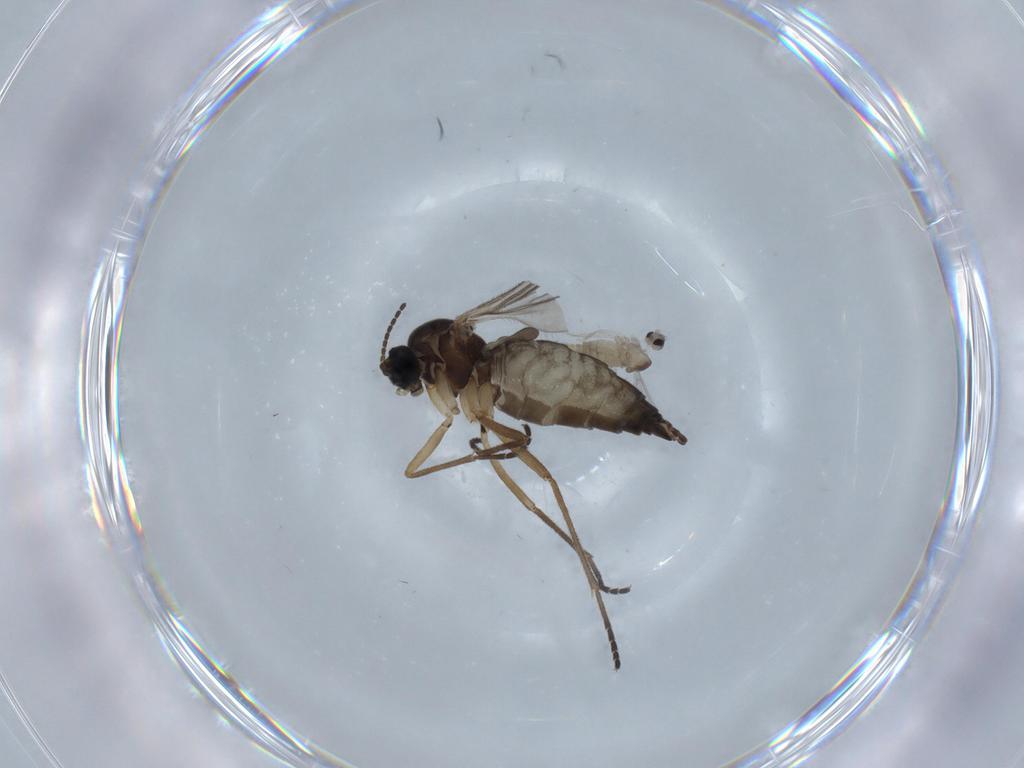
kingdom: Animalia
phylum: Arthropoda
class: Insecta
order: Diptera
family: Cecidomyiidae
